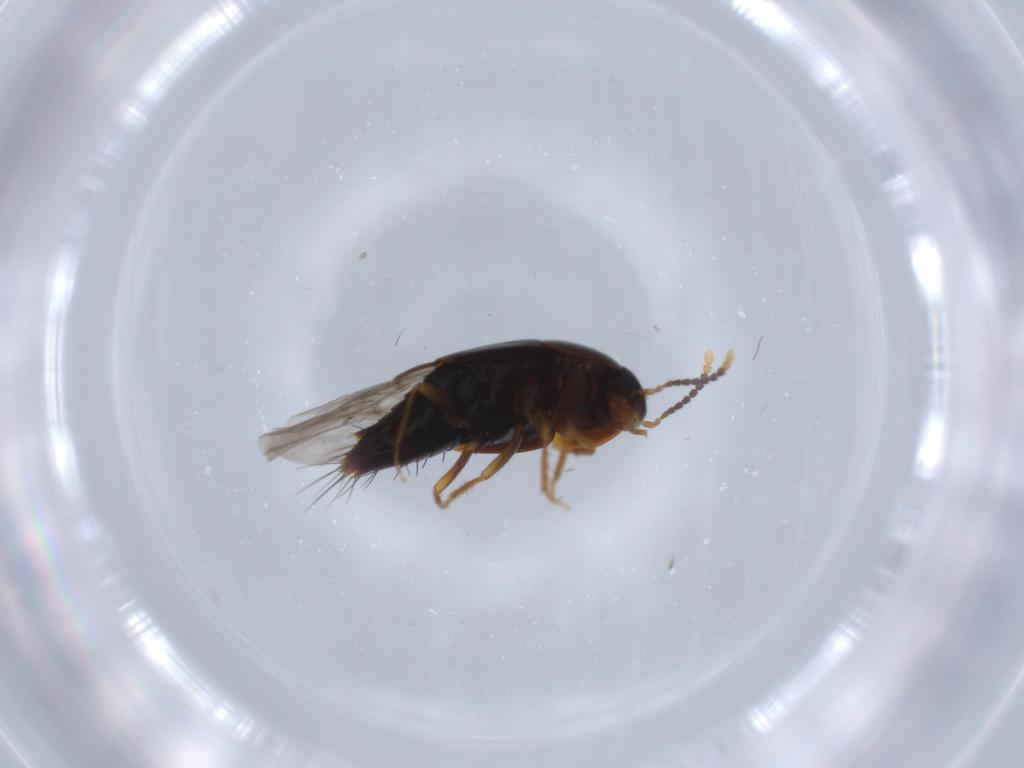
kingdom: Animalia
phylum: Arthropoda
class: Insecta
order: Coleoptera
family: Staphylinidae
